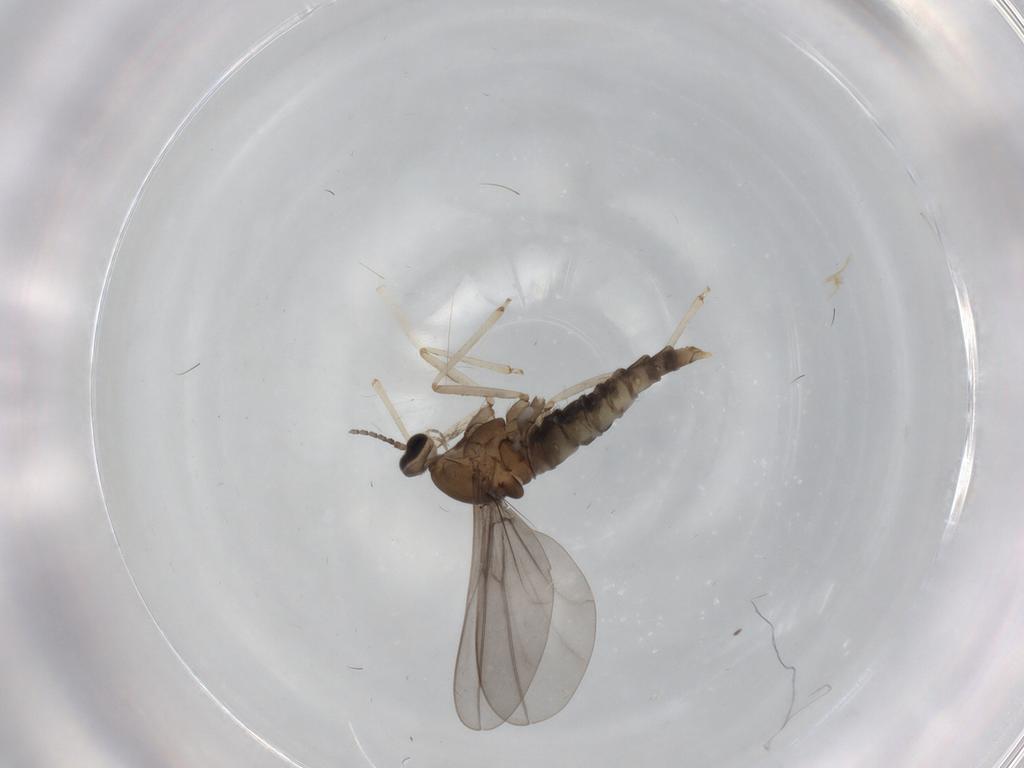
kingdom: Animalia
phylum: Arthropoda
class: Insecta
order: Diptera
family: Cecidomyiidae
